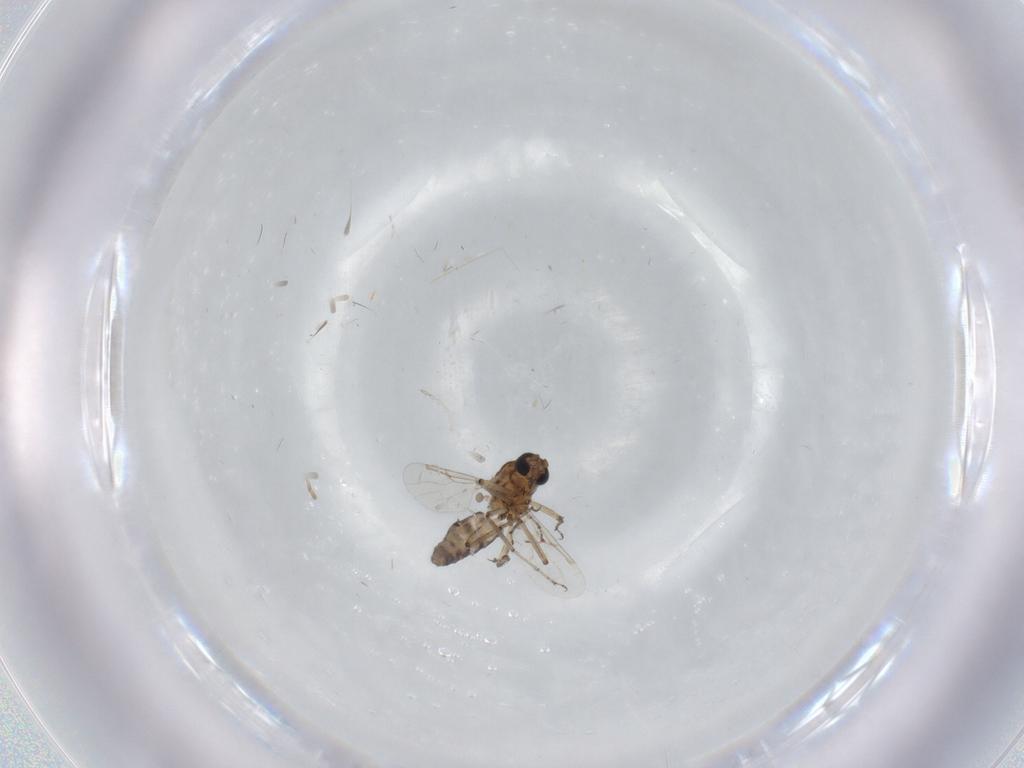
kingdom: Animalia
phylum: Arthropoda
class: Insecta
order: Diptera
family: Ceratopogonidae
